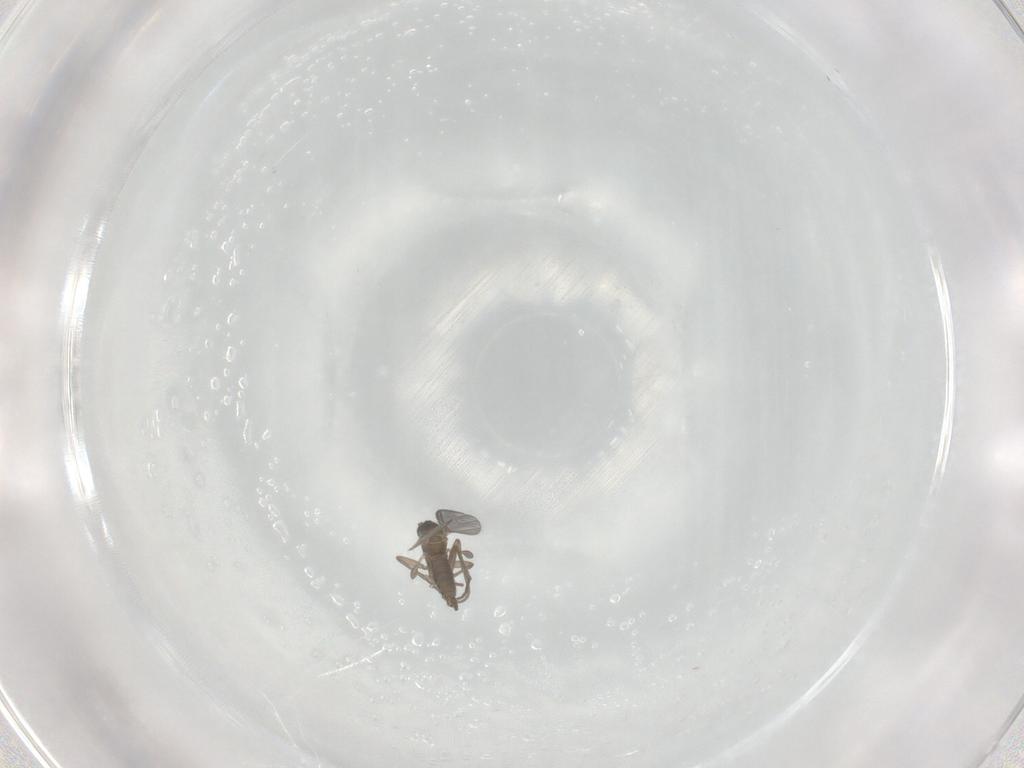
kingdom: Animalia
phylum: Arthropoda
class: Insecta
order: Diptera
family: Sciaridae
